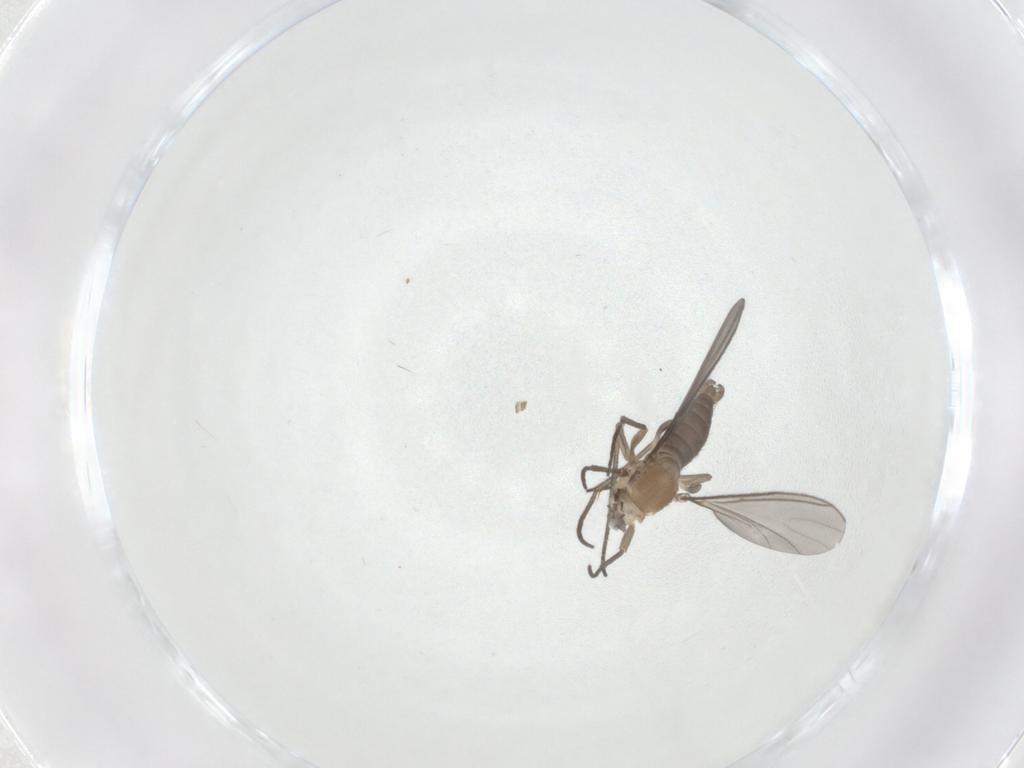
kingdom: Animalia
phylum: Arthropoda
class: Insecta
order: Diptera
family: Sciaridae
